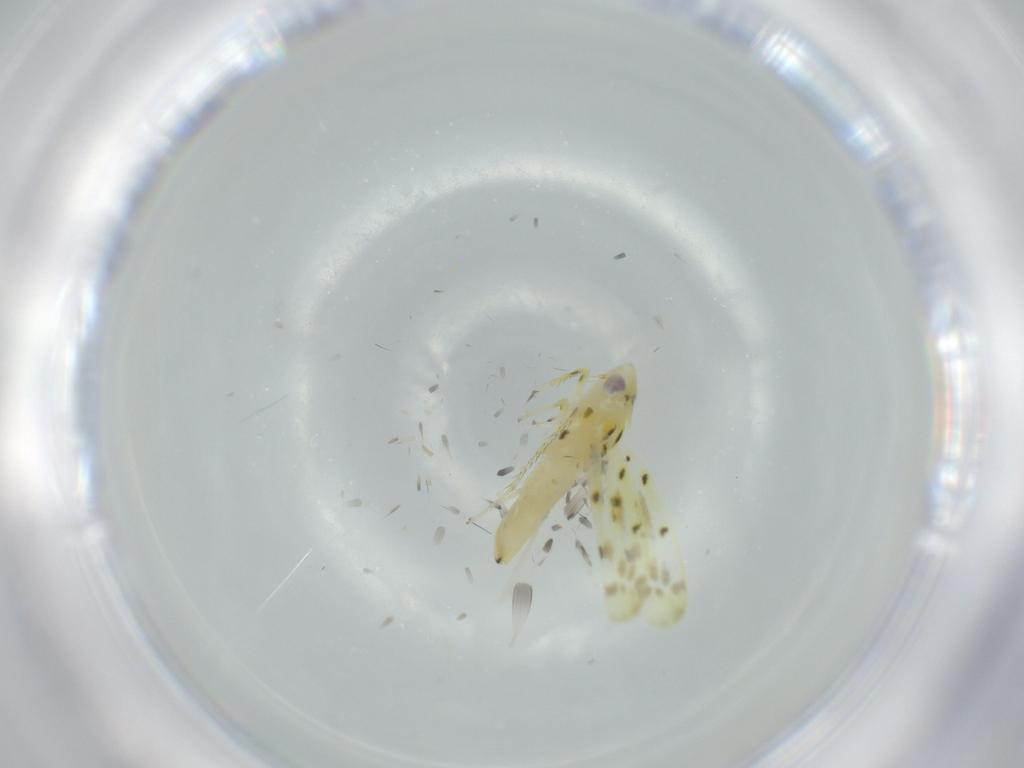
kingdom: Animalia
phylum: Arthropoda
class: Insecta
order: Hemiptera
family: Cicadellidae
